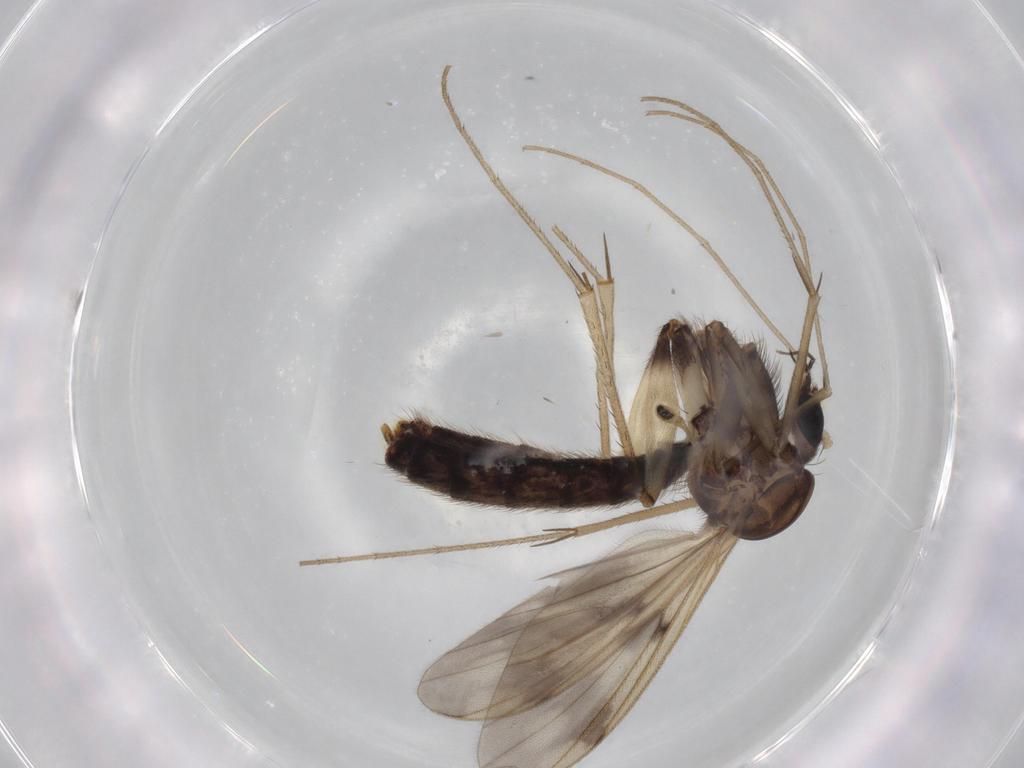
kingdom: Animalia
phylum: Arthropoda
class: Insecta
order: Diptera
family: Mycetophilidae
